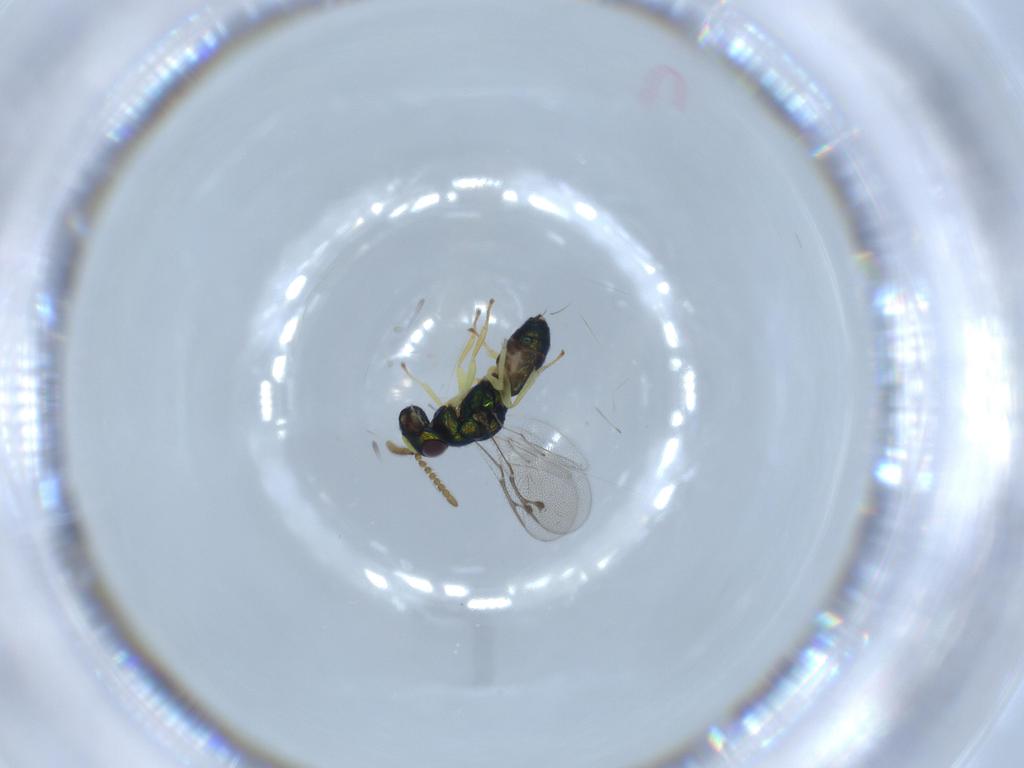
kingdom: Animalia
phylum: Arthropoda
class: Insecta
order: Hymenoptera
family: Pirenidae
